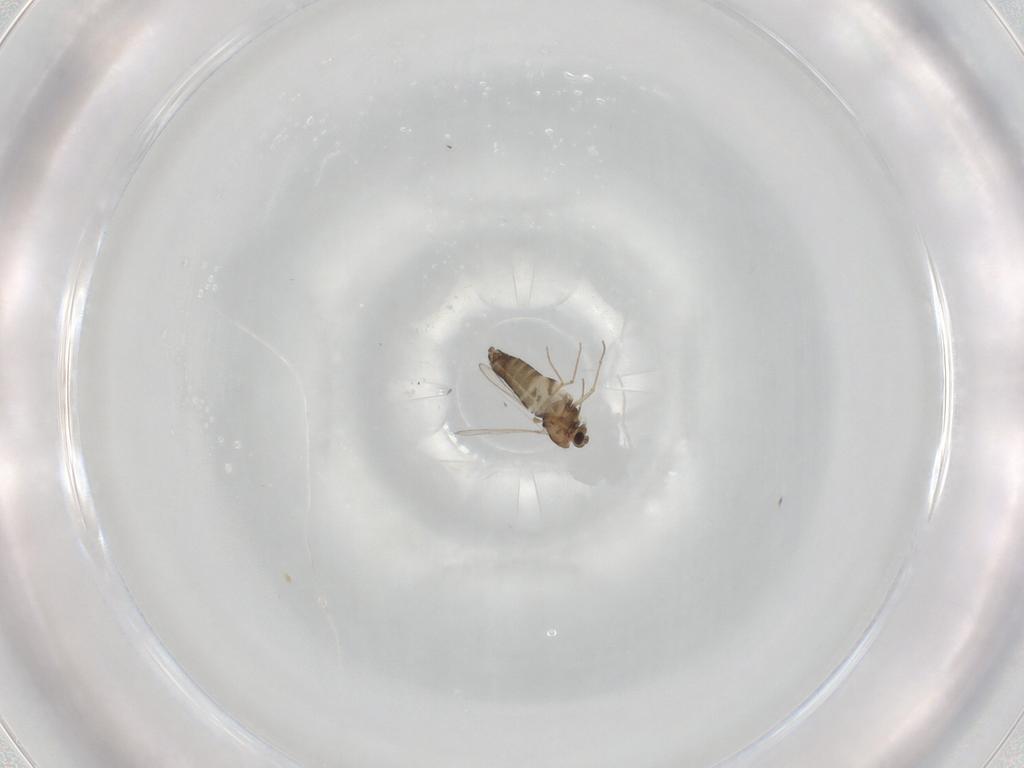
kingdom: Animalia
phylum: Arthropoda
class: Insecta
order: Diptera
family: Chironomidae
